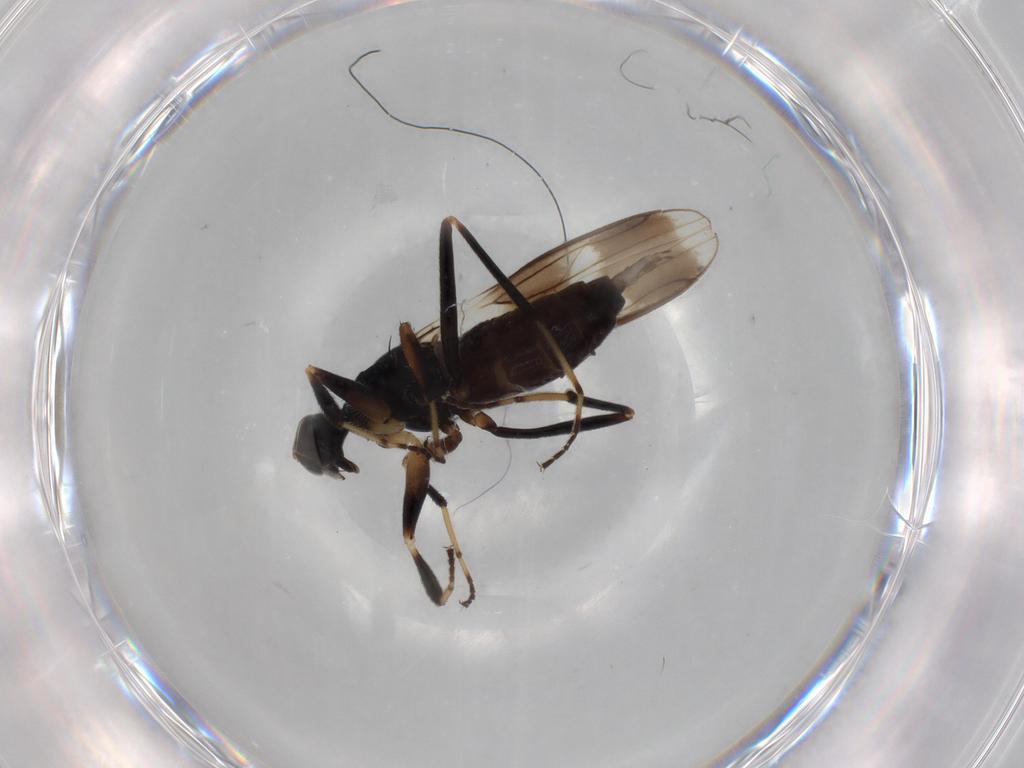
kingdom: Animalia
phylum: Arthropoda
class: Insecta
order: Diptera
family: Hybotidae
